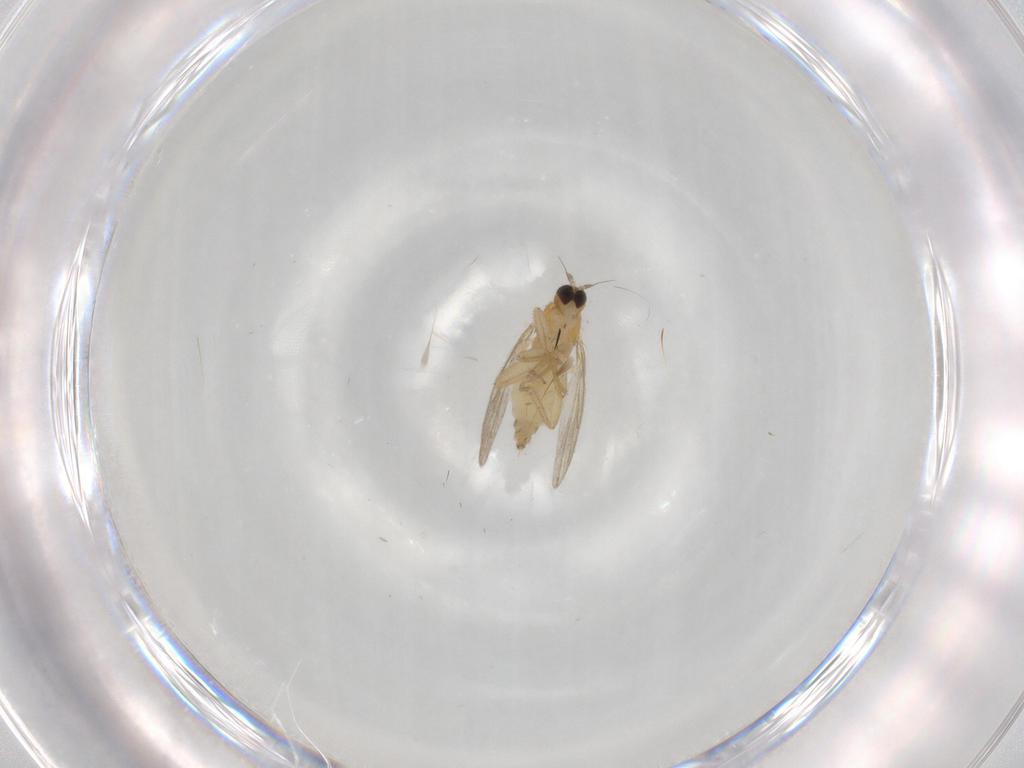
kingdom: Animalia
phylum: Arthropoda
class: Insecta
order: Diptera
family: Hybotidae
